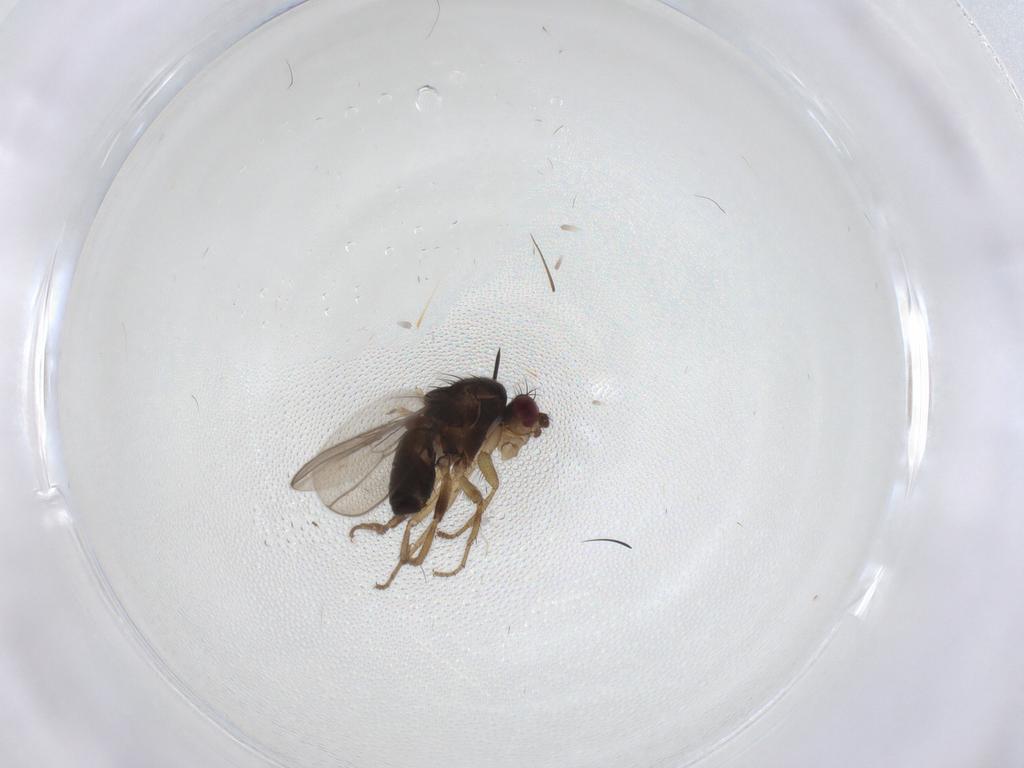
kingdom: Animalia
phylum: Arthropoda
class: Insecta
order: Diptera
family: Sphaeroceridae
